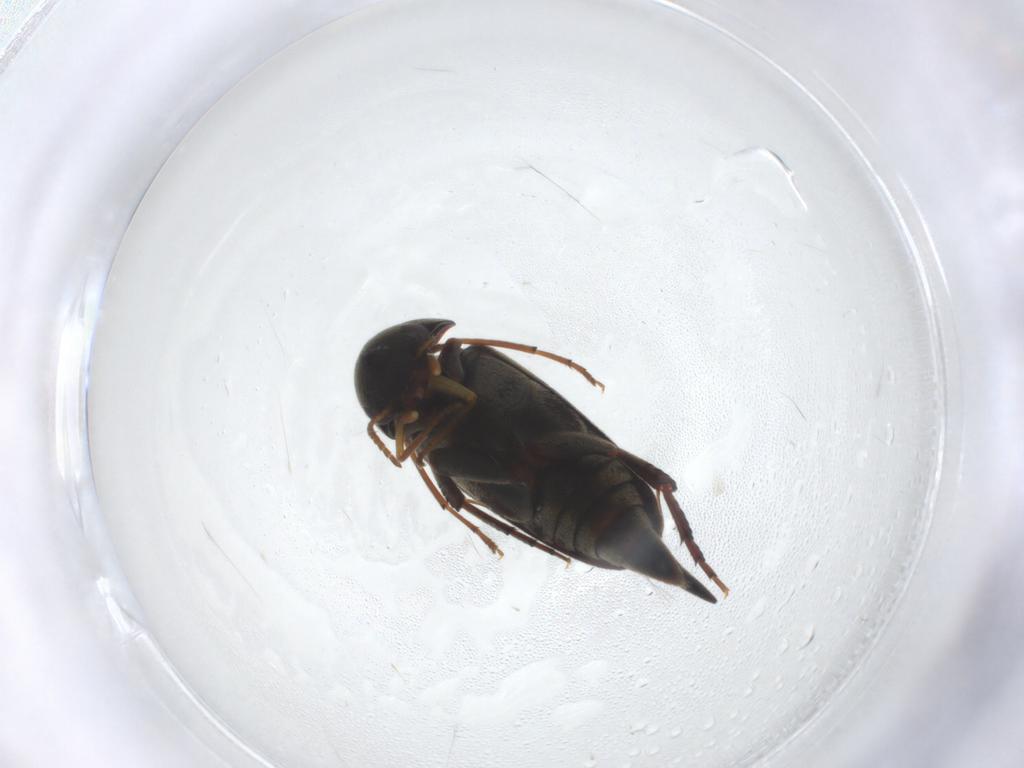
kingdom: Animalia
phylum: Arthropoda
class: Insecta
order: Coleoptera
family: Mordellidae
